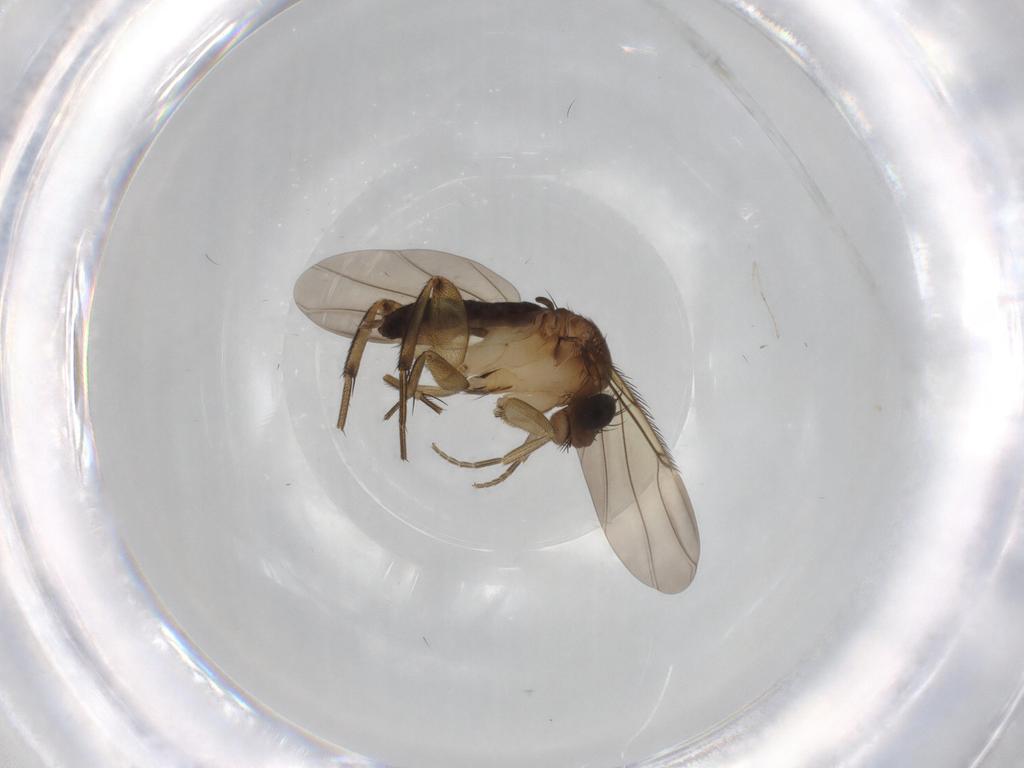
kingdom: Animalia
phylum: Arthropoda
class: Insecta
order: Diptera
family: Phoridae
